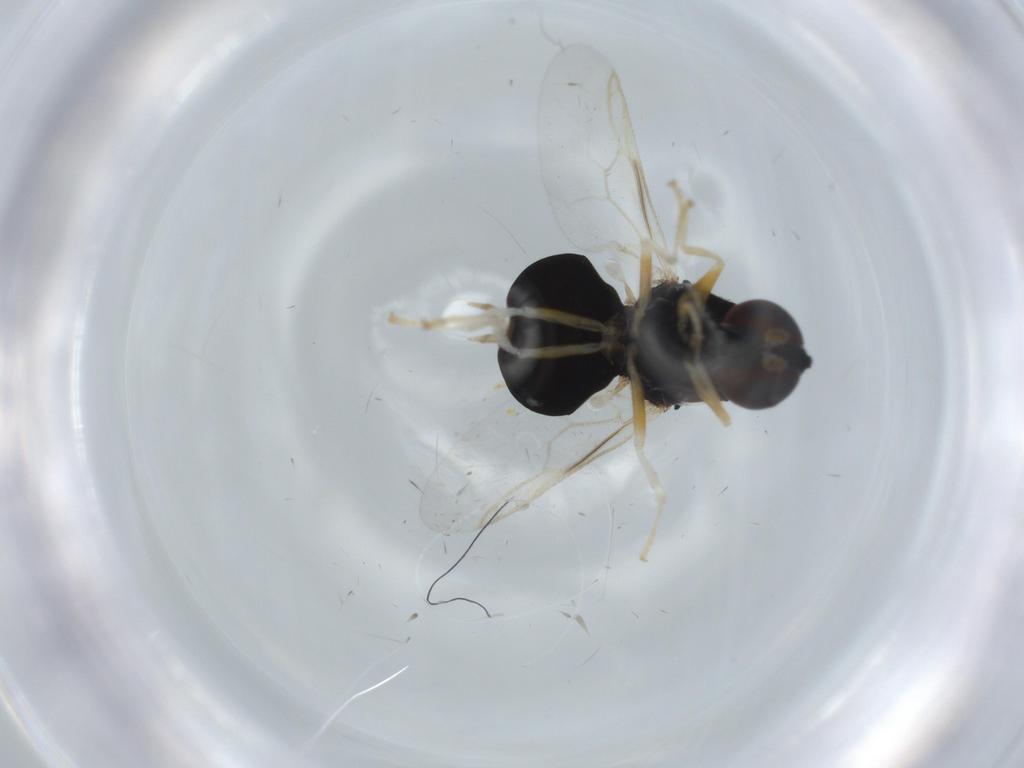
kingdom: Animalia
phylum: Arthropoda
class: Insecta
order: Diptera
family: Stratiomyidae
